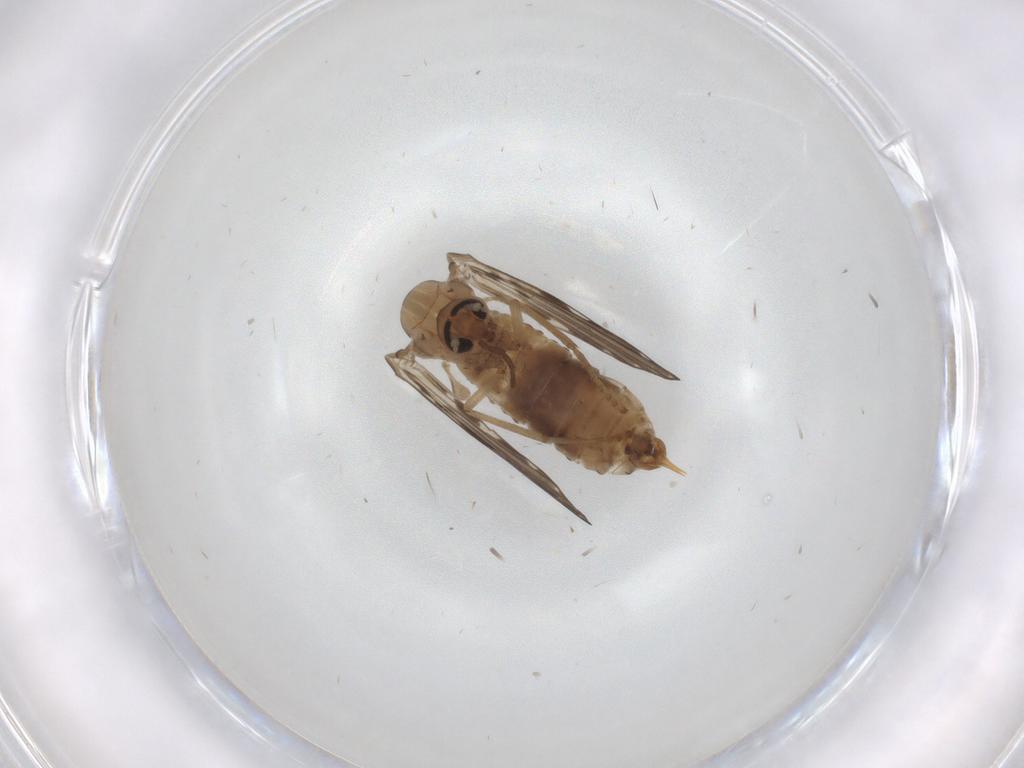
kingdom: Animalia
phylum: Arthropoda
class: Insecta
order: Diptera
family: Psychodidae
